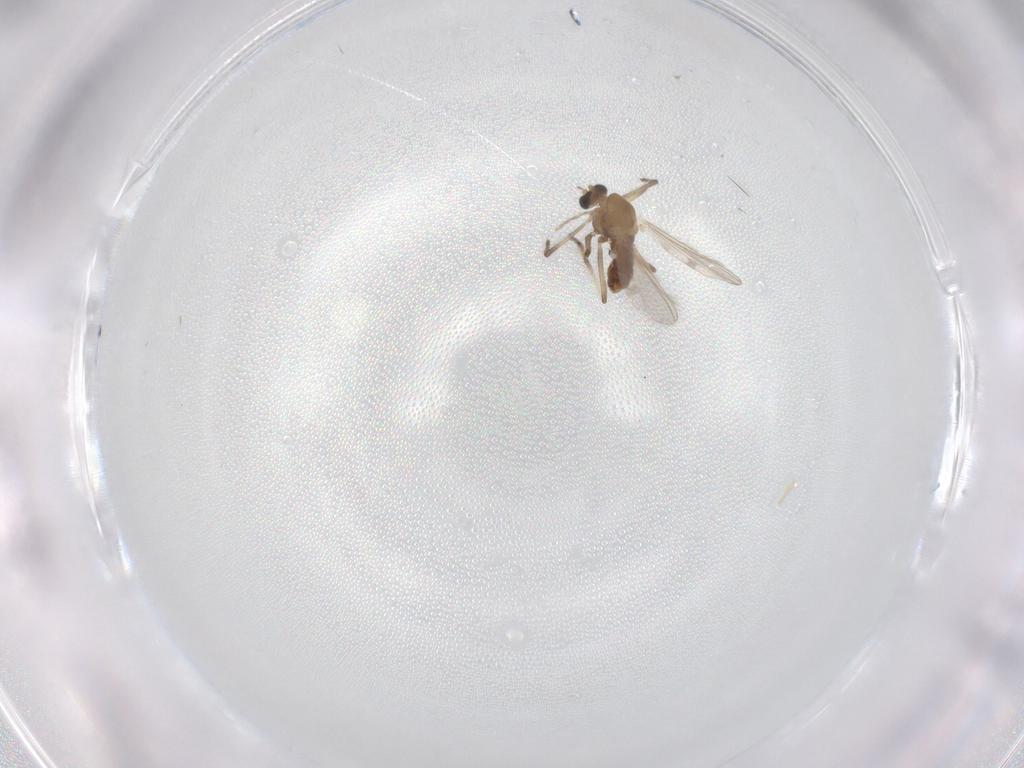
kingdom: Animalia
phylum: Arthropoda
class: Insecta
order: Diptera
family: Chironomidae
